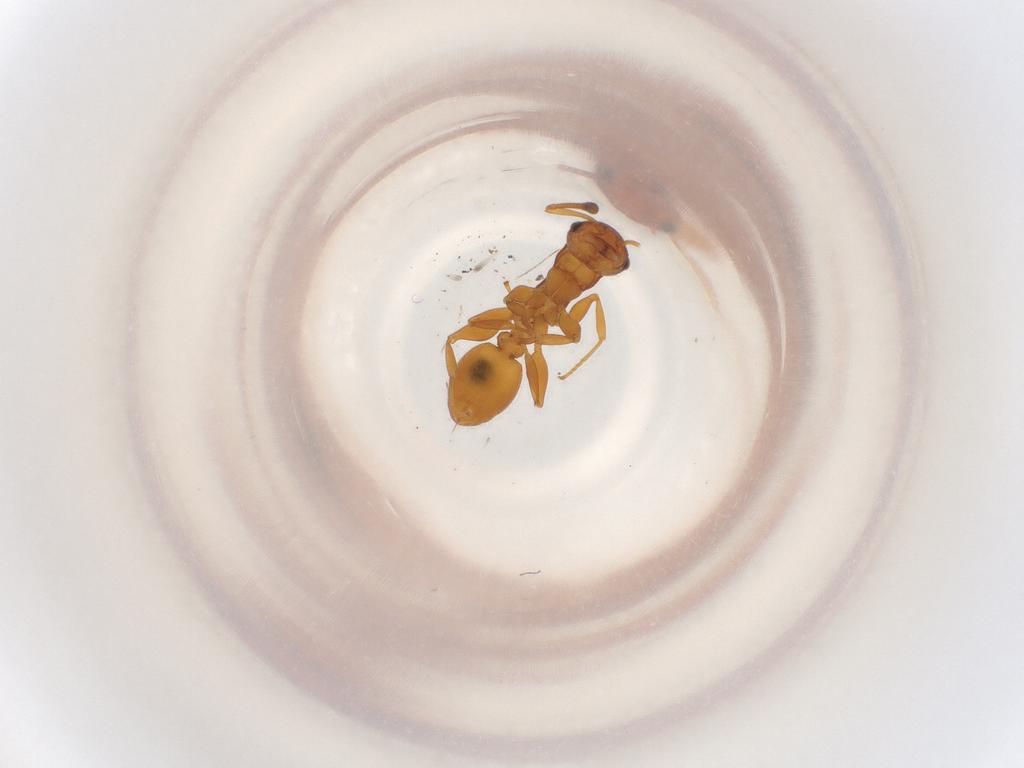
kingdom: Animalia
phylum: Arthropoda
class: Insecta
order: Hymenoptera
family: Formicidae
